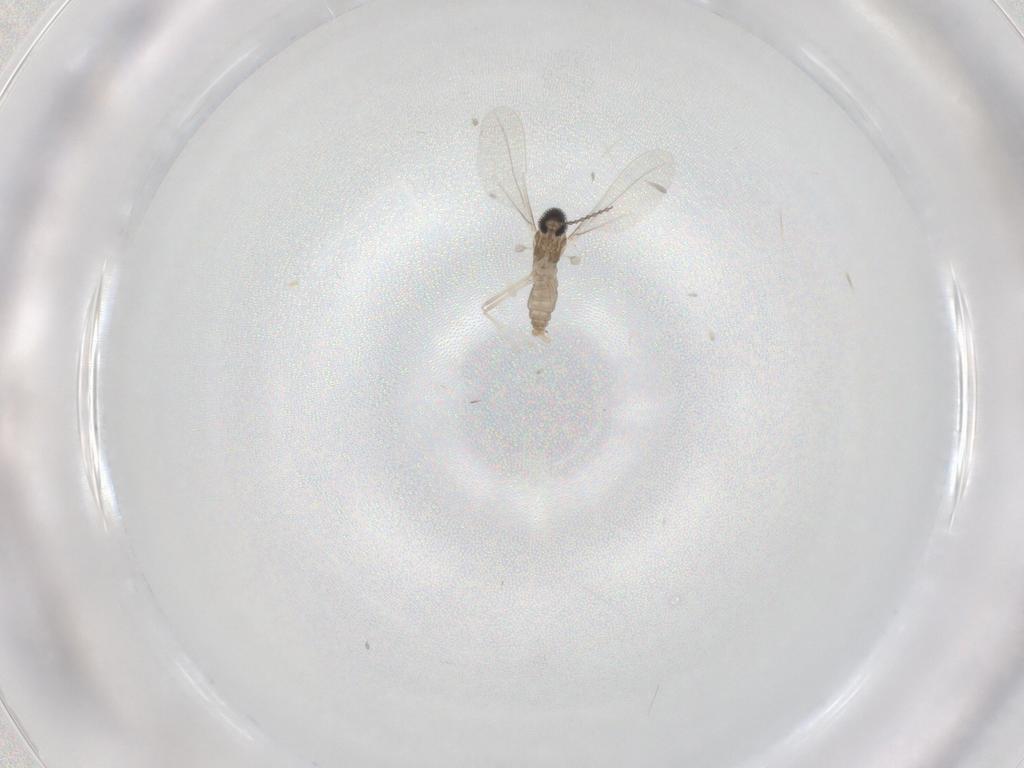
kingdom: Animalia
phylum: Arthropoda
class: Insecta
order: Diptera
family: Cecidomyiidae
